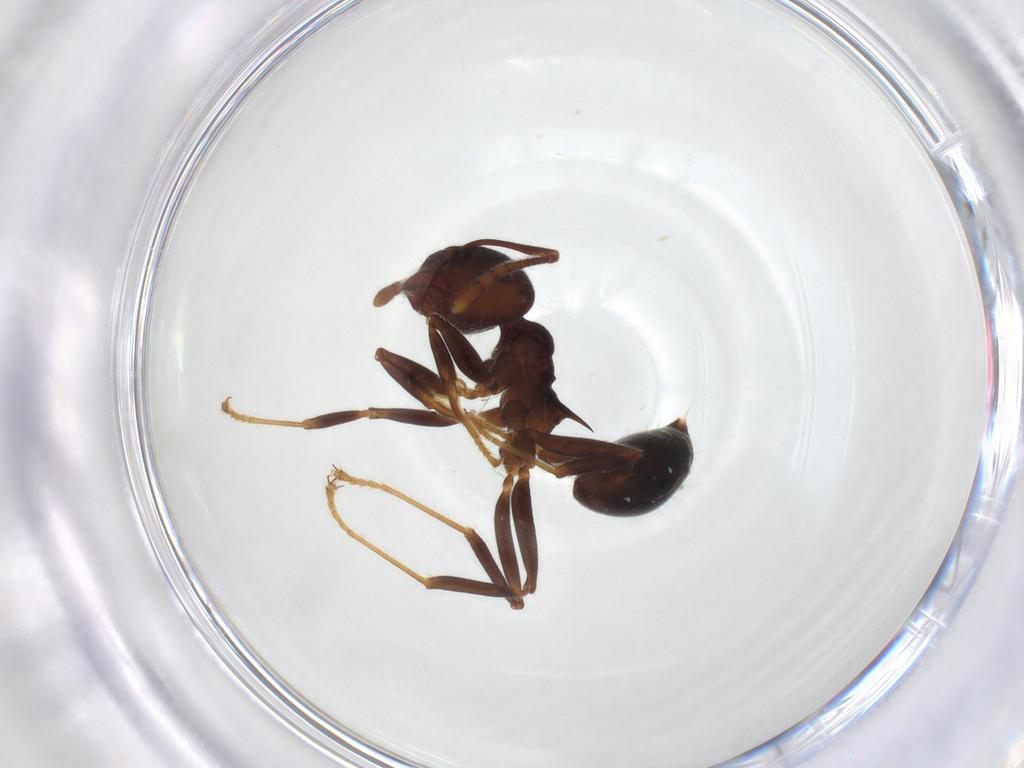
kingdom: Animalia
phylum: Arthropoda
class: Insecta
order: Hymenoptera
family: Formicidae
